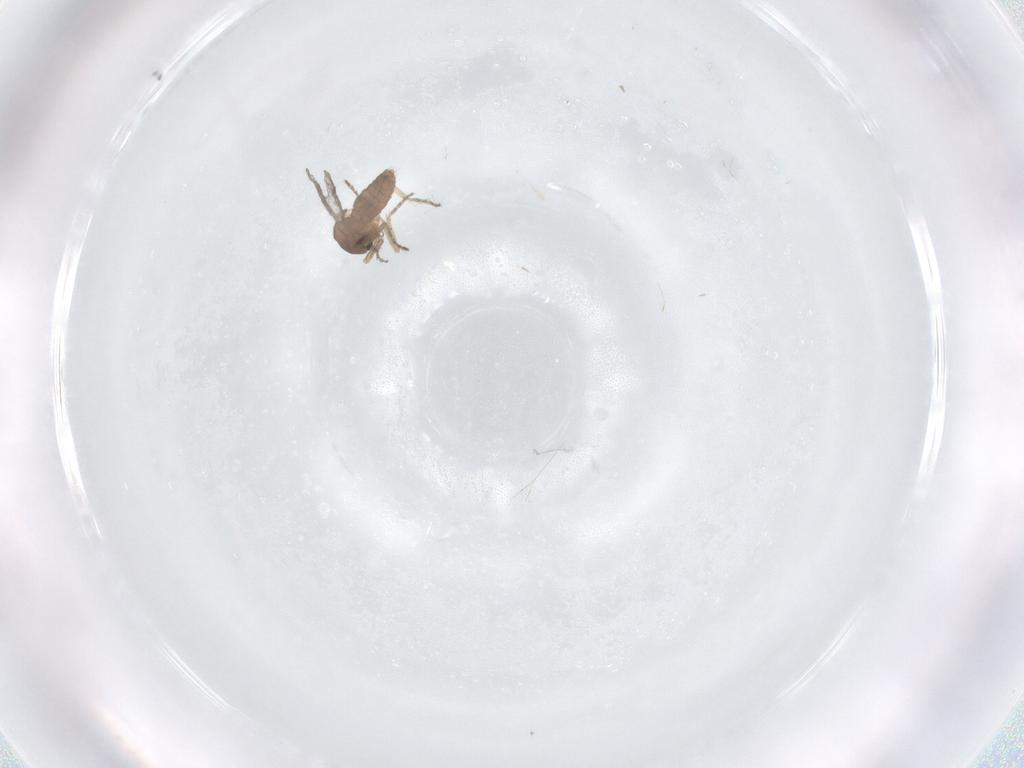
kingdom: Animalia
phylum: Arthropoda
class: Insecta
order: Diptera
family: Ceratopogonidae
